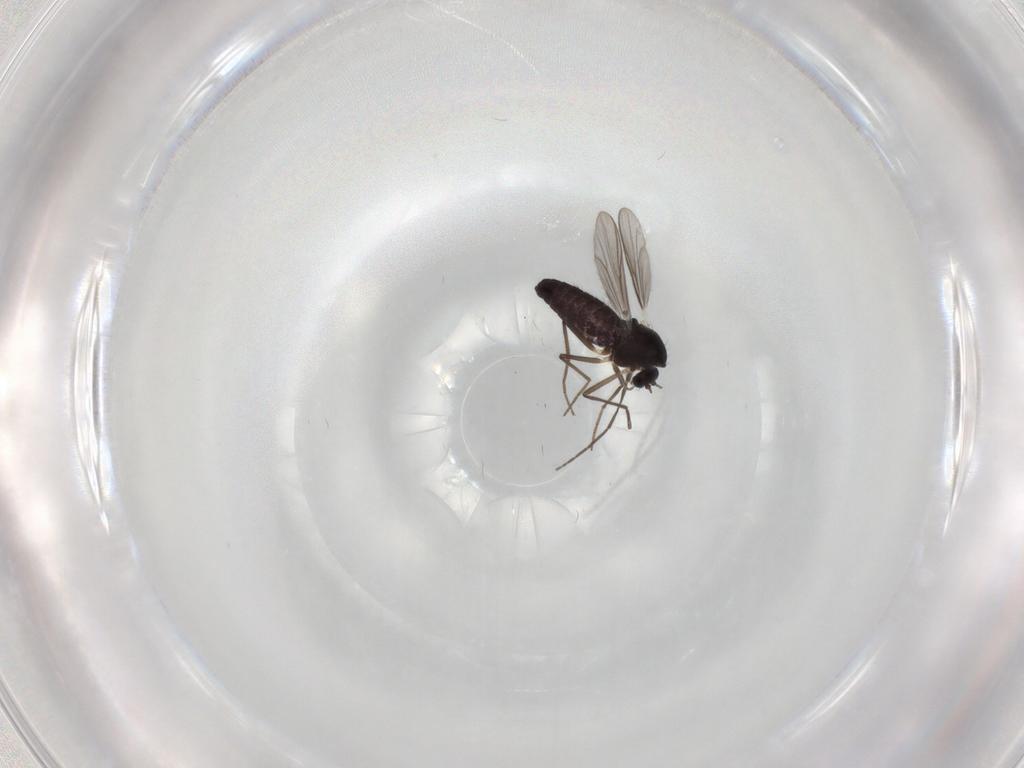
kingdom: Animalia
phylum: Arthropoda
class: Insecta
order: Diptera
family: Chironomidae
